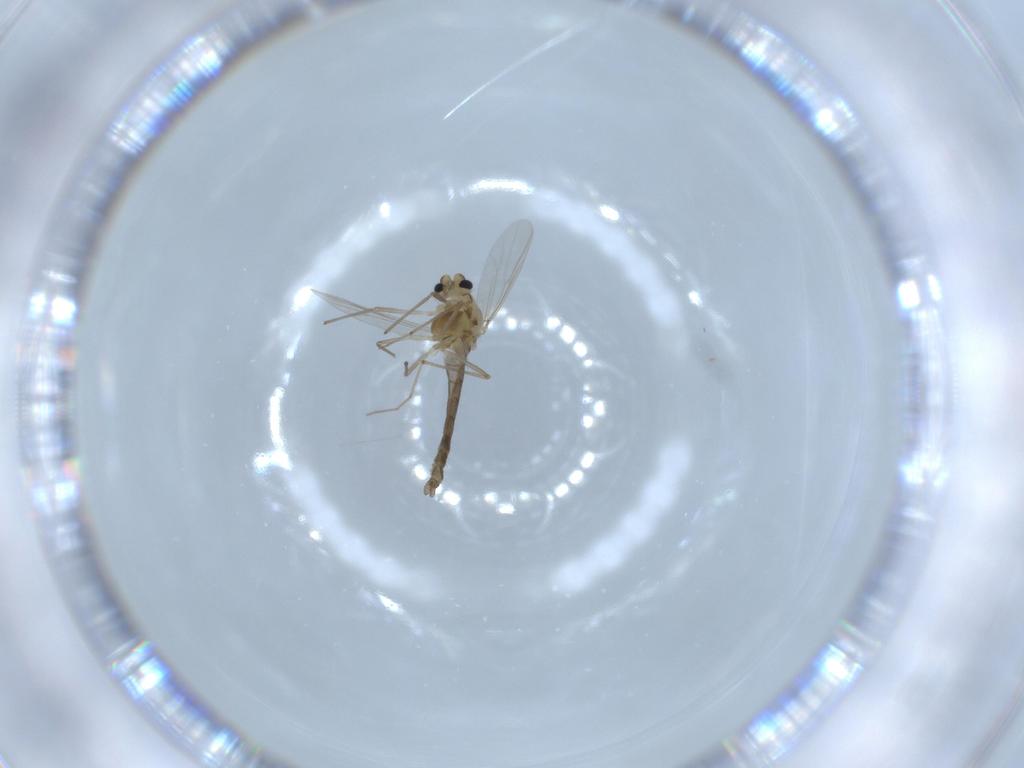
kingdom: Animalia
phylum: Arthropoda
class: Insecta
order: Diptera
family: Chironomidae
